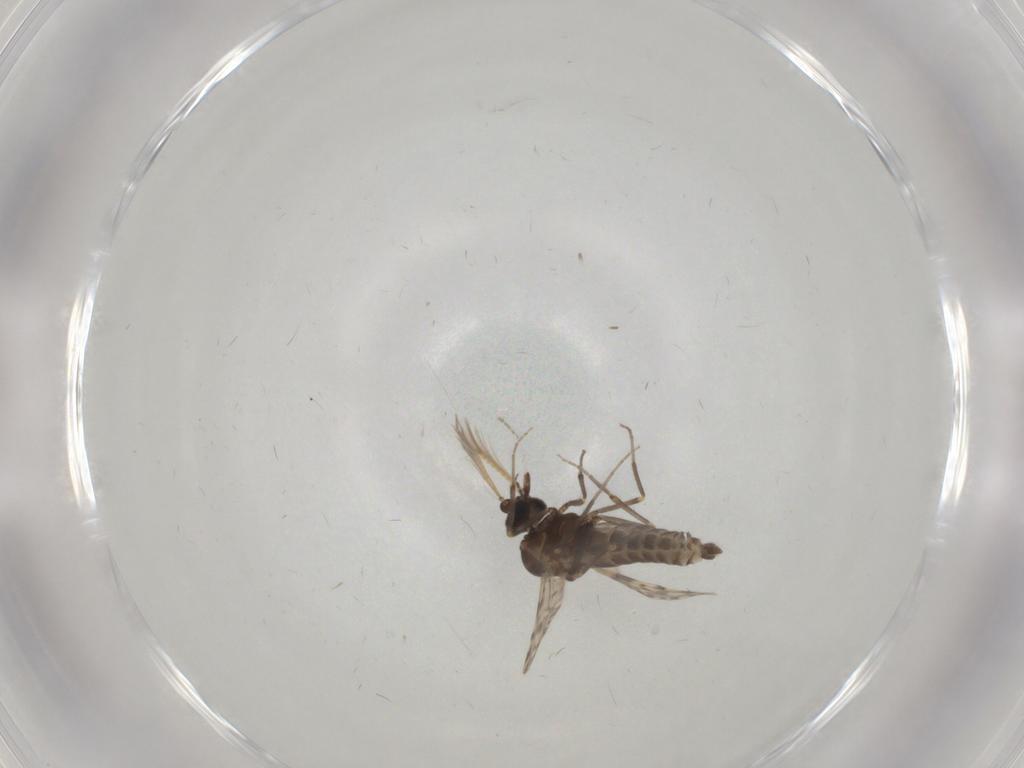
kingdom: Animalia
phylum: Arthropoda
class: Insecta
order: Diptera
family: Ceratopogonidae
